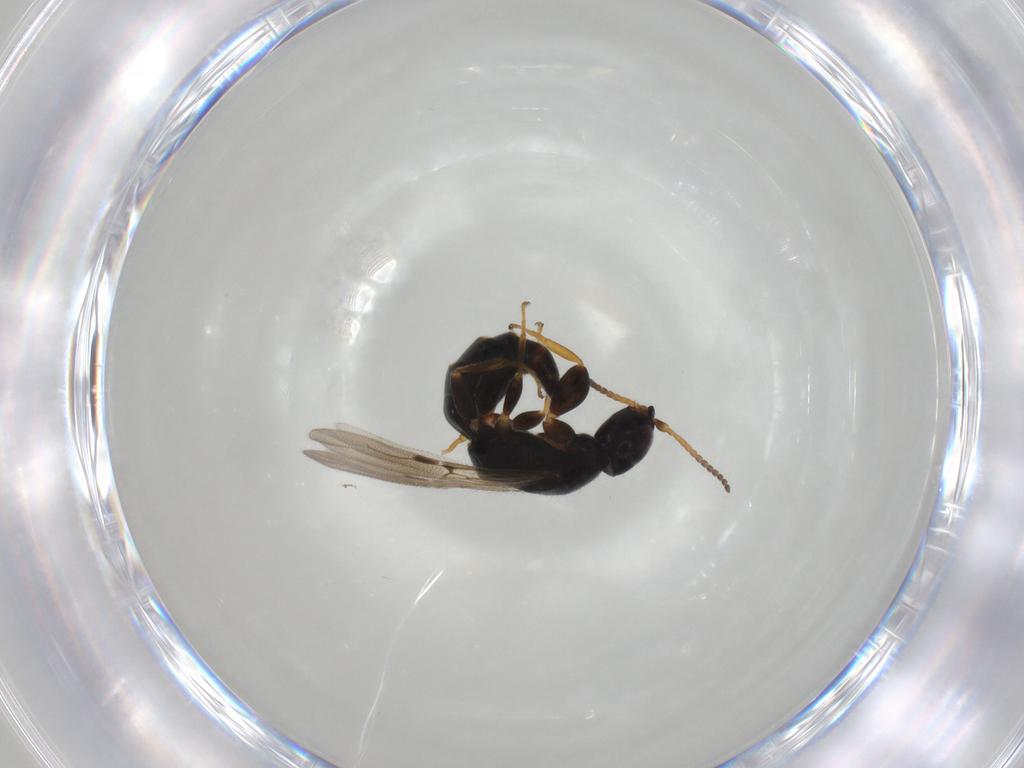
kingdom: Animalia
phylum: Arthropoda
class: Insecta
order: Hymenoptera
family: Bethylidae
